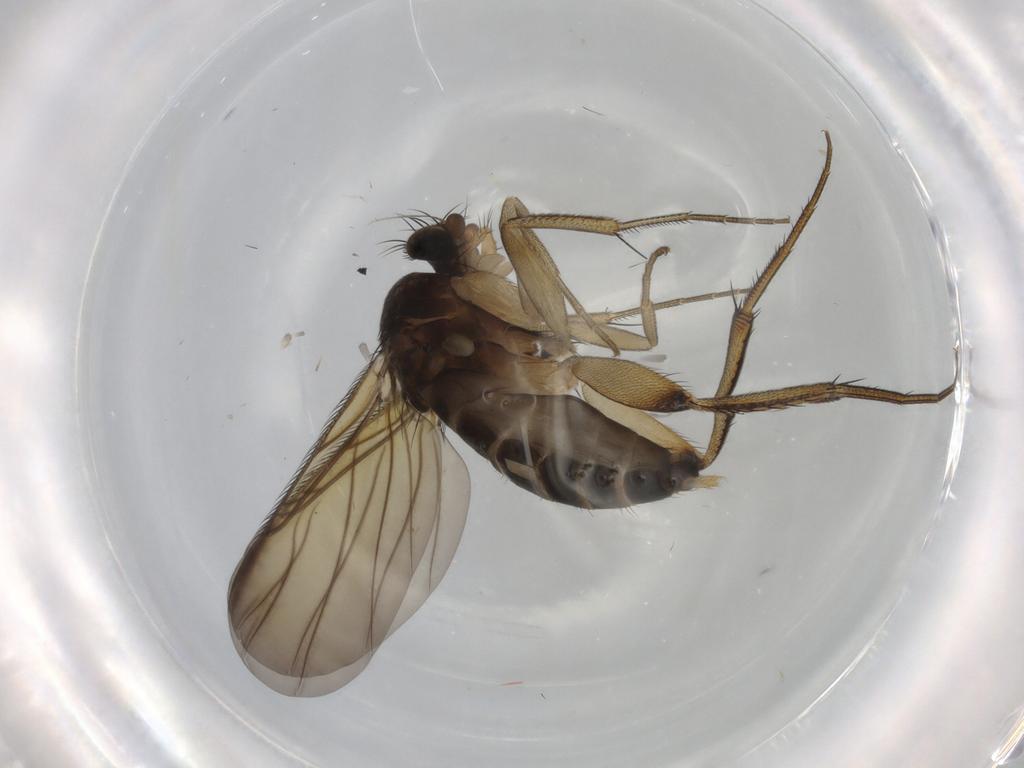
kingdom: Animalia
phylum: Arthropoda
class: Insecta
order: Diptera
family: Phoridae
